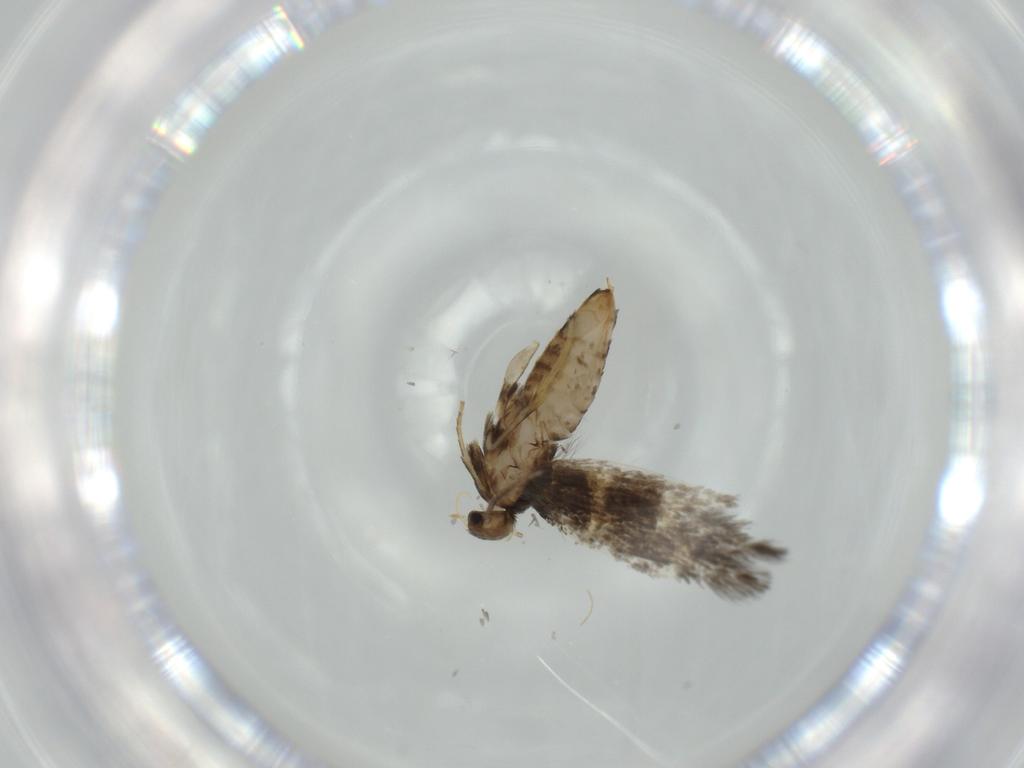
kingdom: Animalia
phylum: Arthropoda
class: Insecta
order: Lepidoptera
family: Heliozelidae
